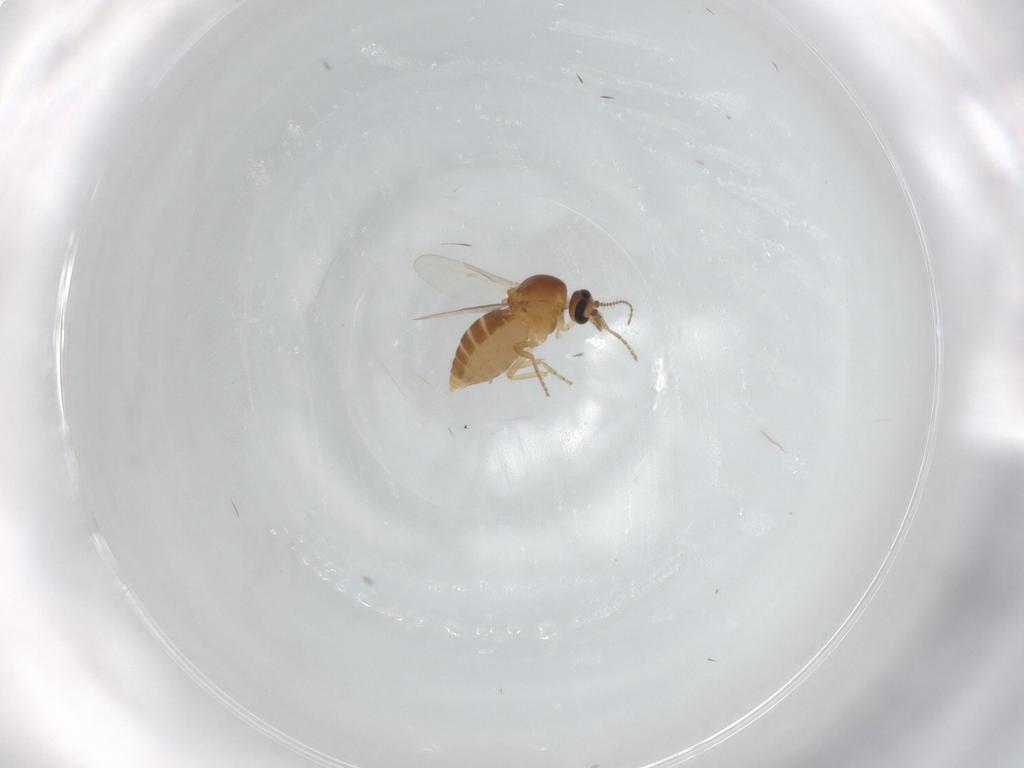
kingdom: Animalia
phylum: Arthropoda
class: Insecta
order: Diptera
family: Ceratopogonidae
